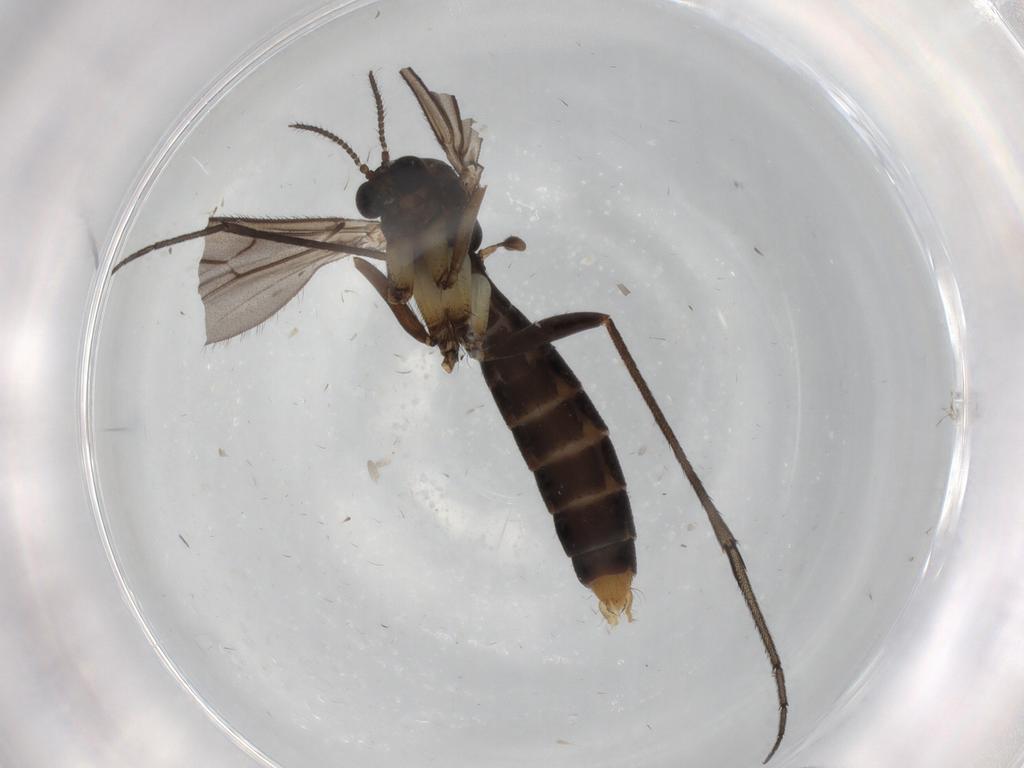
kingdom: Animalia
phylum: Arthropoda
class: Insecta
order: Diptera
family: Ditomyiidae
